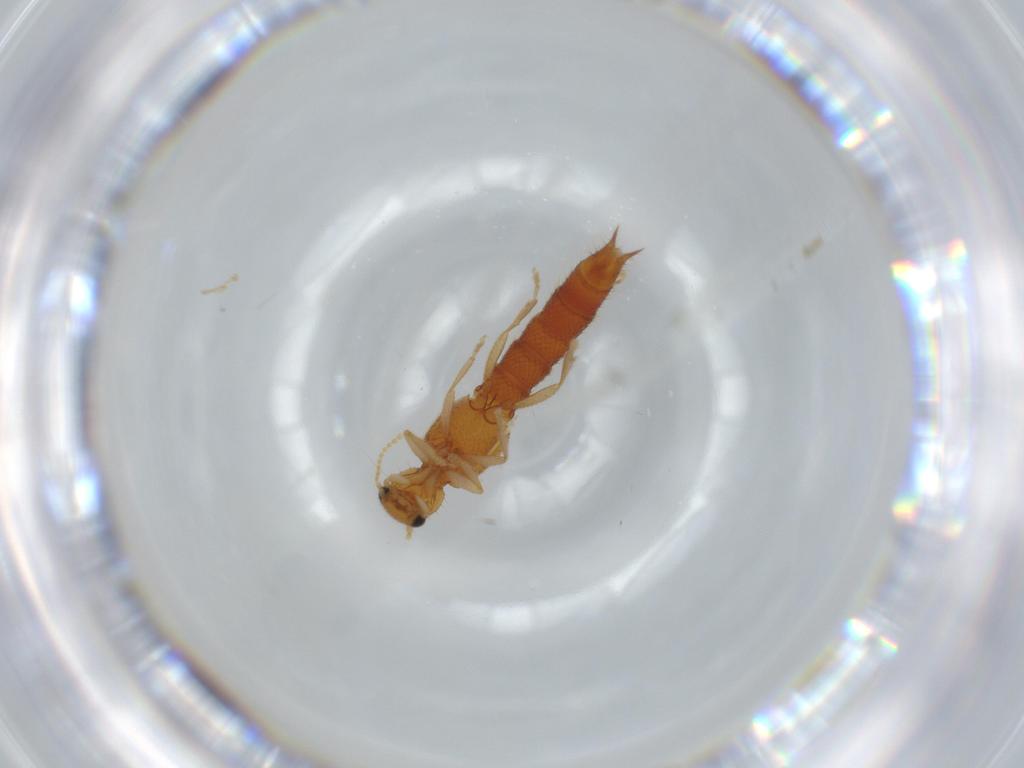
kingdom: Animalia
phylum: Arthropoda
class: Insecta
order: Coleoptera
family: Staphylinidae
